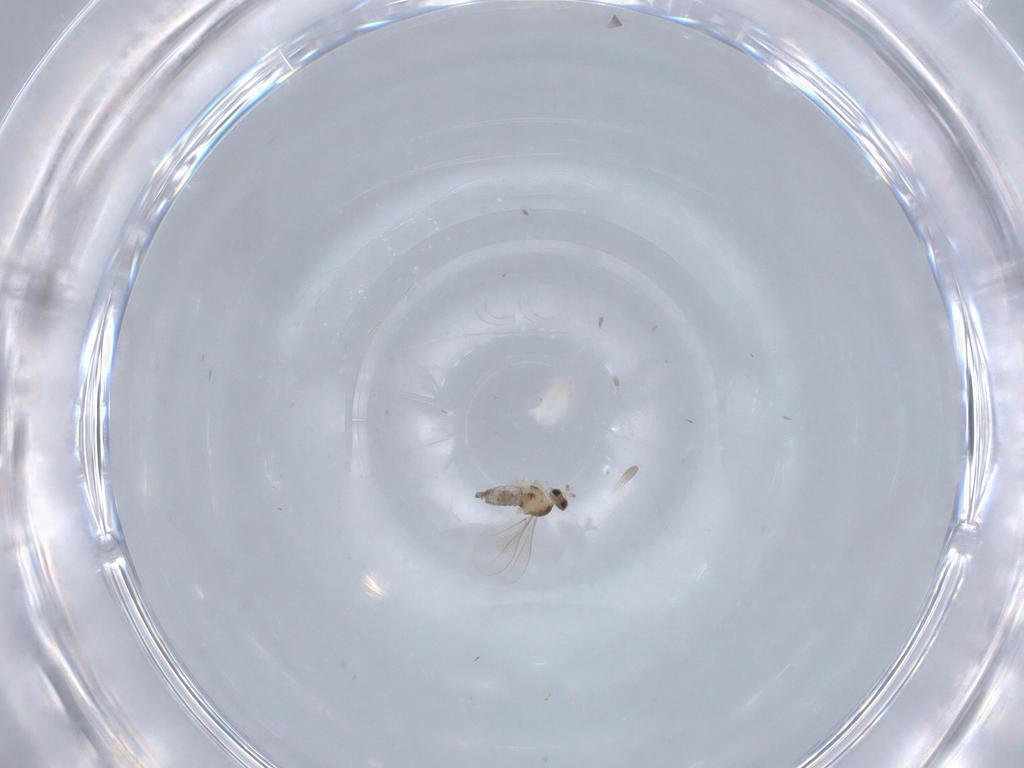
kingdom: Animalia
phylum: Arthropoda
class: Insecta
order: Diptera
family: Cecidomyiidae
